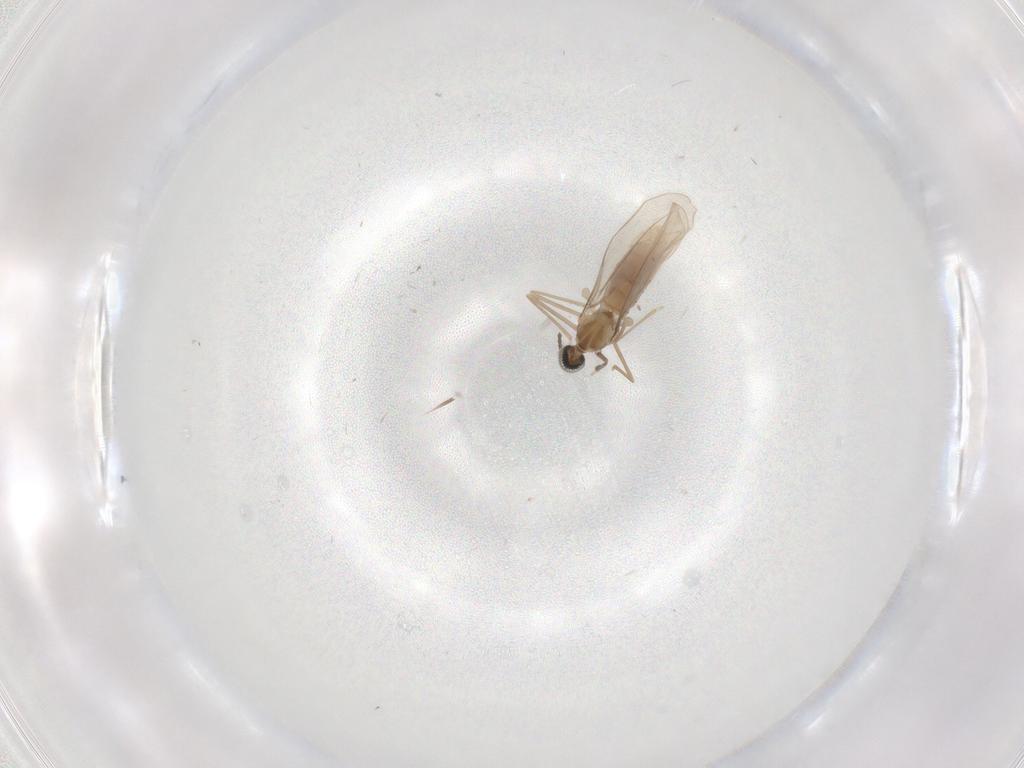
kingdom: Animalia
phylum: Arthropoda
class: Insecta
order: Diptera
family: Cecidomyiidae
